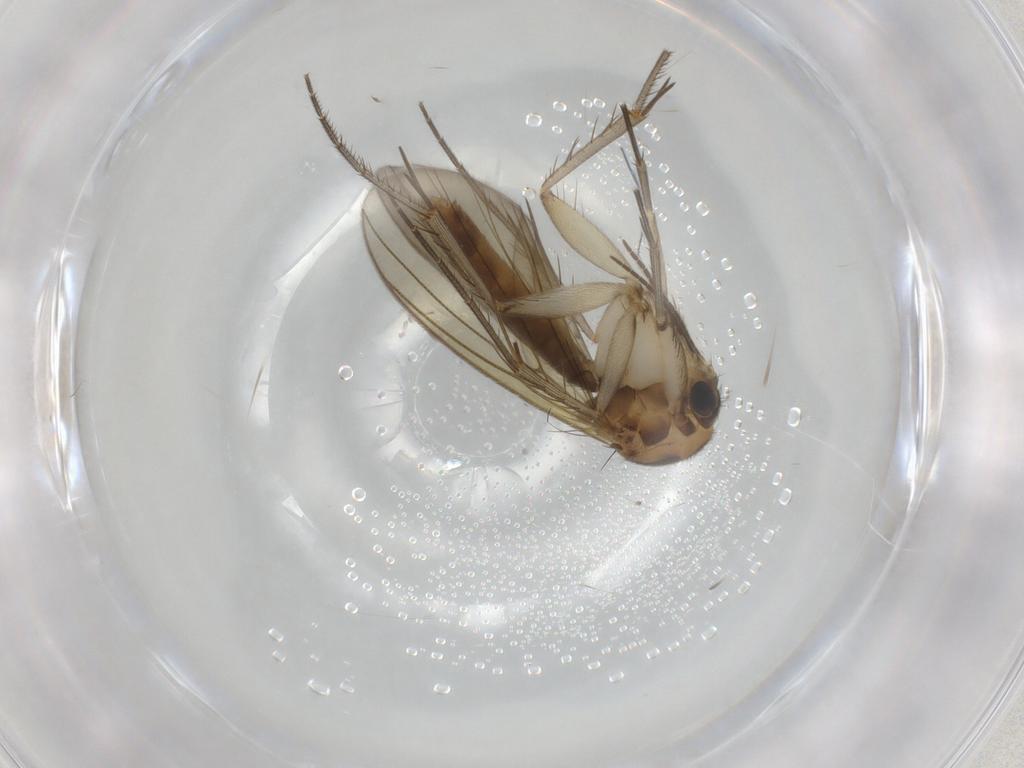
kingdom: Animalia
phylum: Arthropoda
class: Insecta
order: Diptera
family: Mycetophilidae
